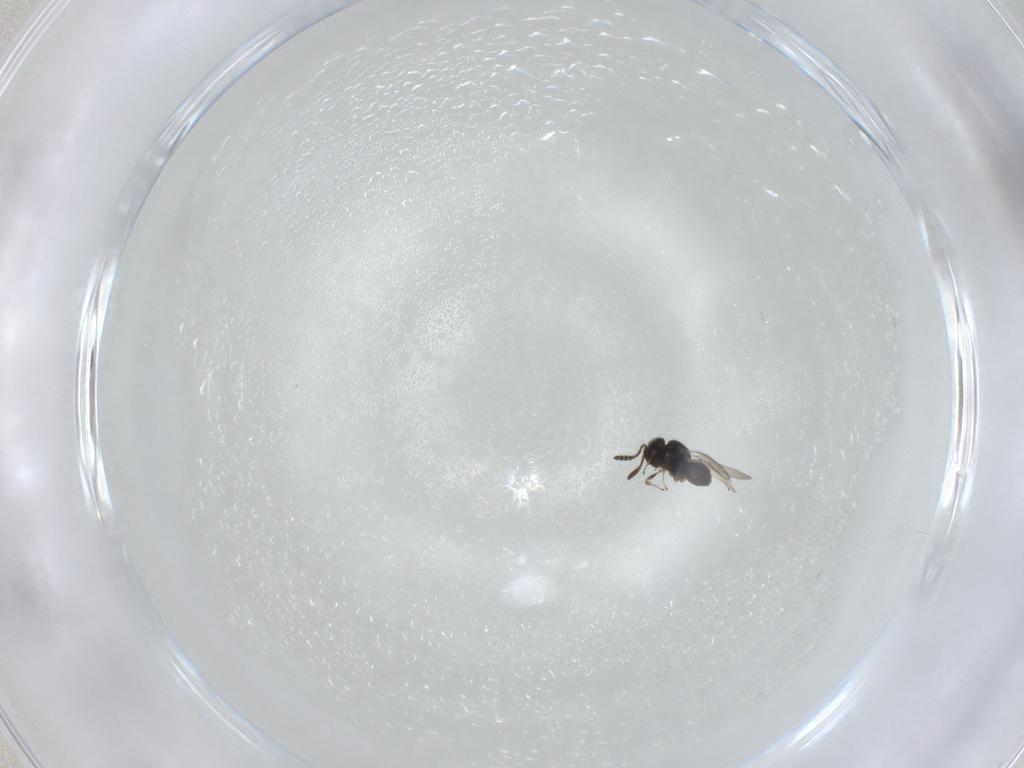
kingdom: Animalia
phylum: Arthropoda
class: Insecta
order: Hymenoptera
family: Scelionidae
